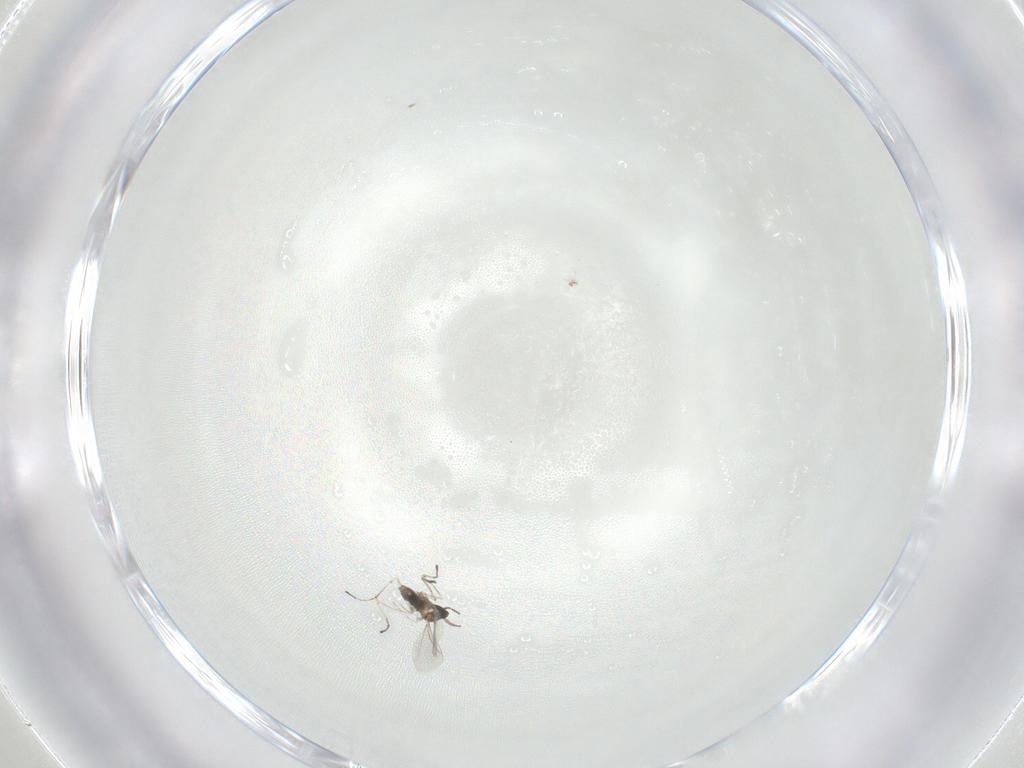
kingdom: Animalia
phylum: Arthropoda
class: Insecta
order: Diptera
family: Cecidomyiidae
